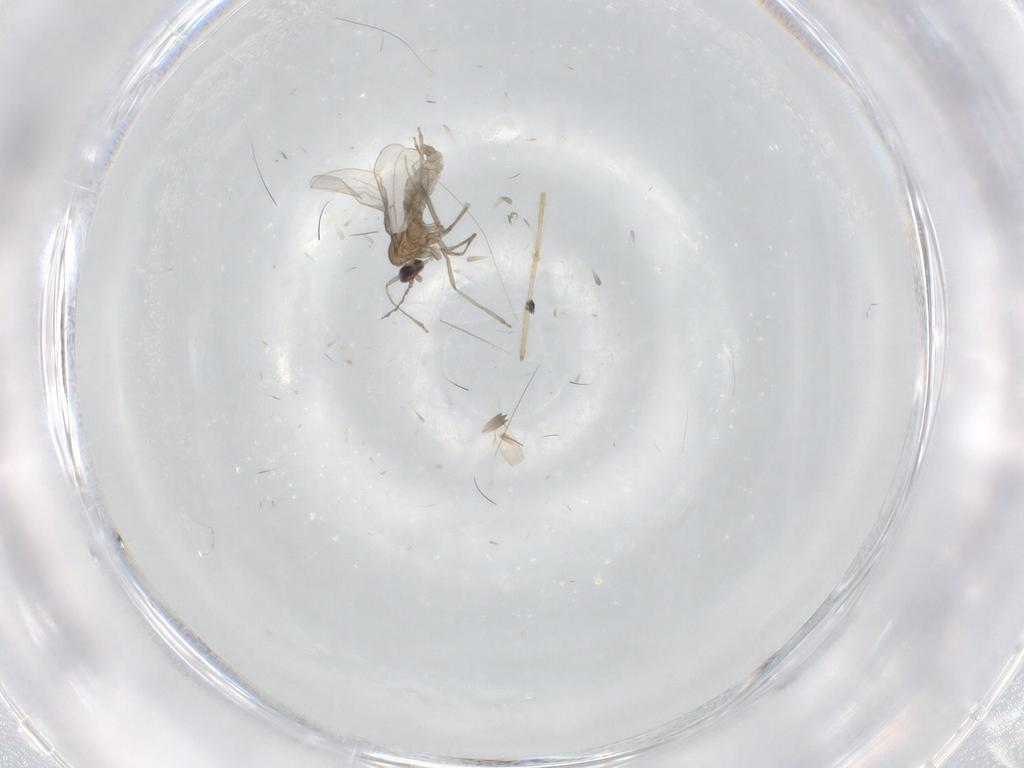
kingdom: Animalia
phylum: Arthropoda
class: Insecta
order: Diptera
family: Cecidomyiidae
